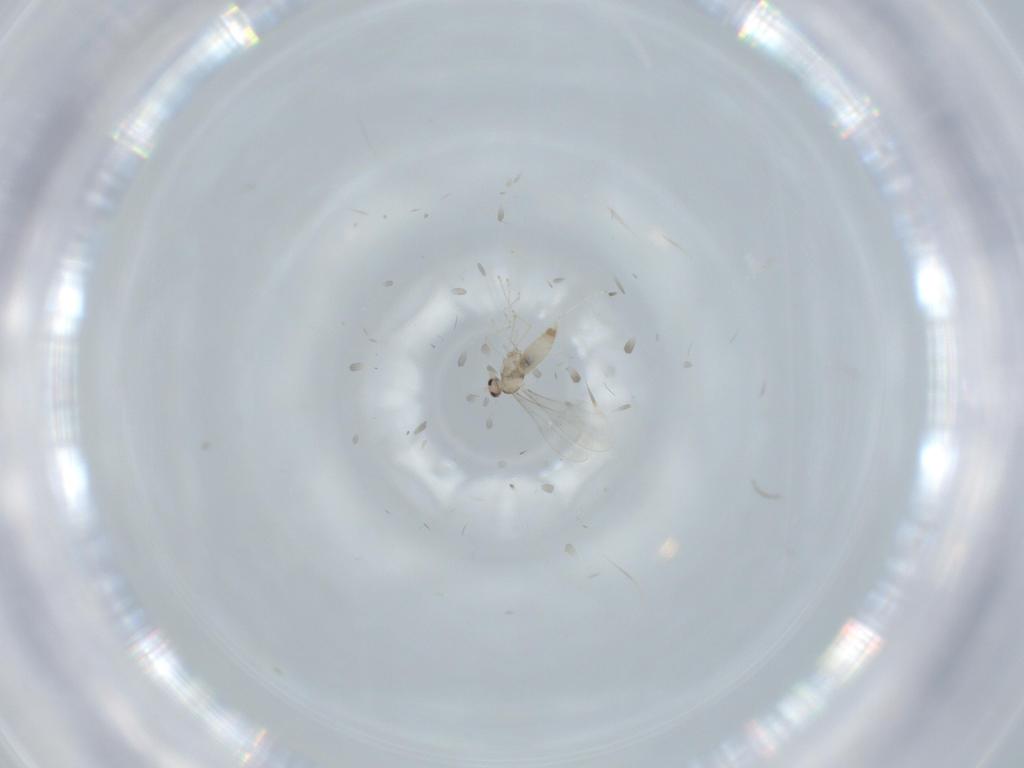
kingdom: Animalia
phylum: Arthropoda
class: Insecta
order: Diptera
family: Cecidomyiidae
